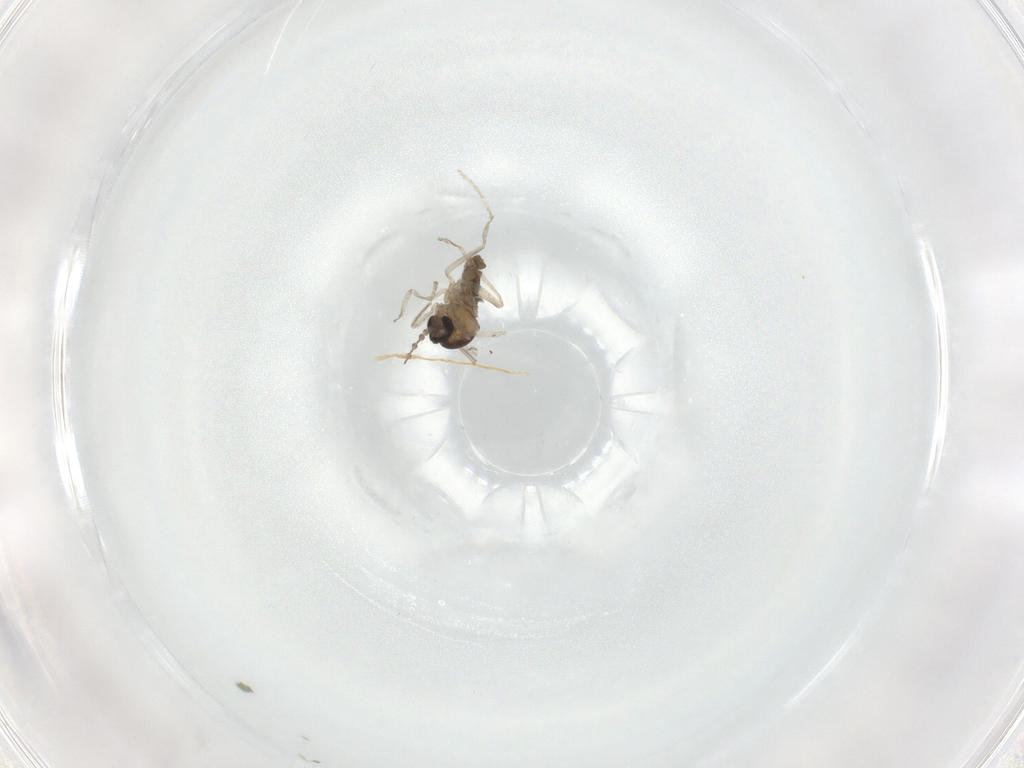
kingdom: Animalia
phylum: Arthropoda
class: Insecta
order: Diptera
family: Cecidomyiidae
